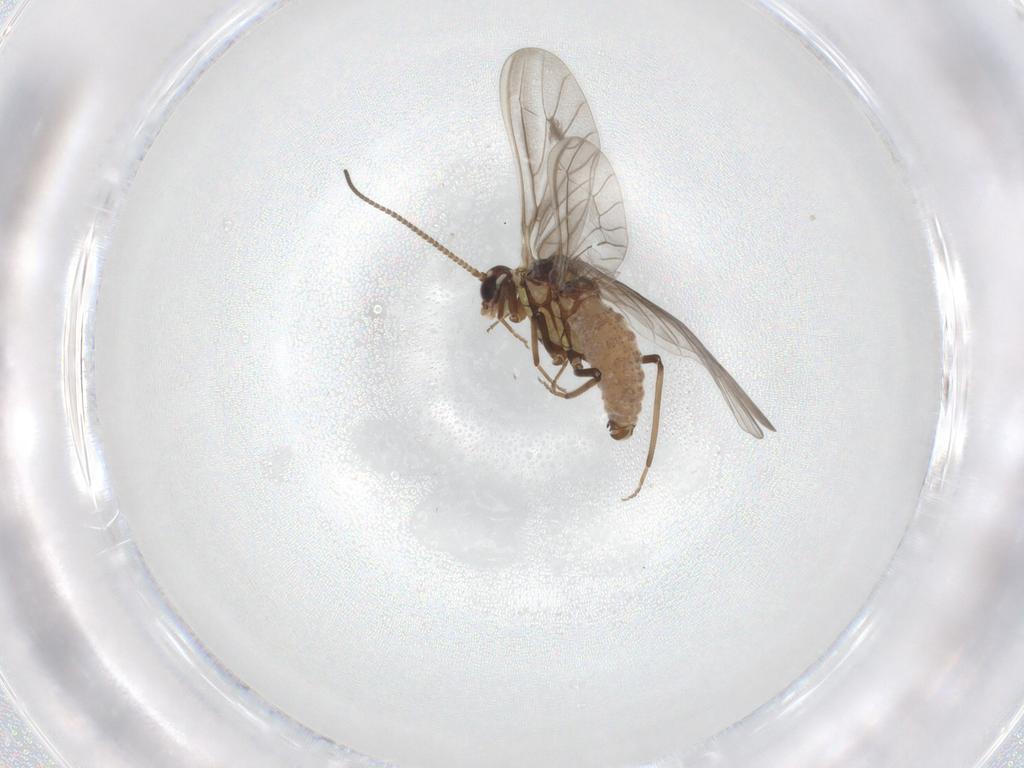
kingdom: Animalia
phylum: Arthropoda
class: Insecta
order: Neuroptera
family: Coniopterygidae
